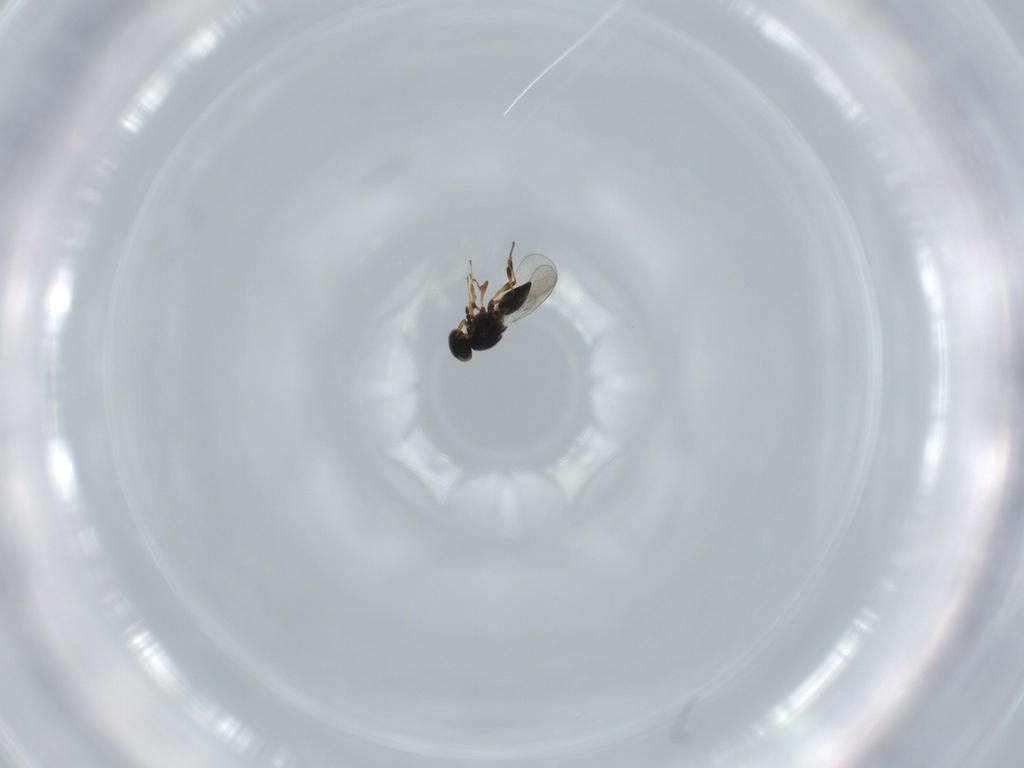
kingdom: Animalia
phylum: Arthropoda
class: Insecta
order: Hymenoptera
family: Platygastridae
